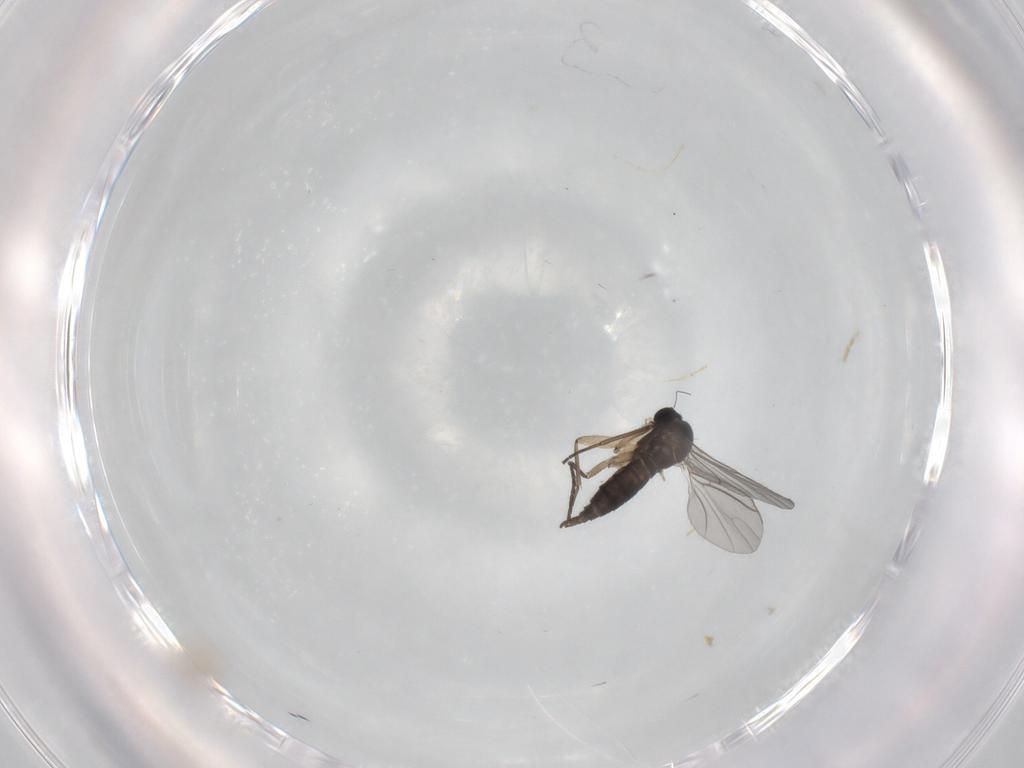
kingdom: Animalia
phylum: Arthropoda
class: Insecta
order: Diptera
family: Sciaridae
